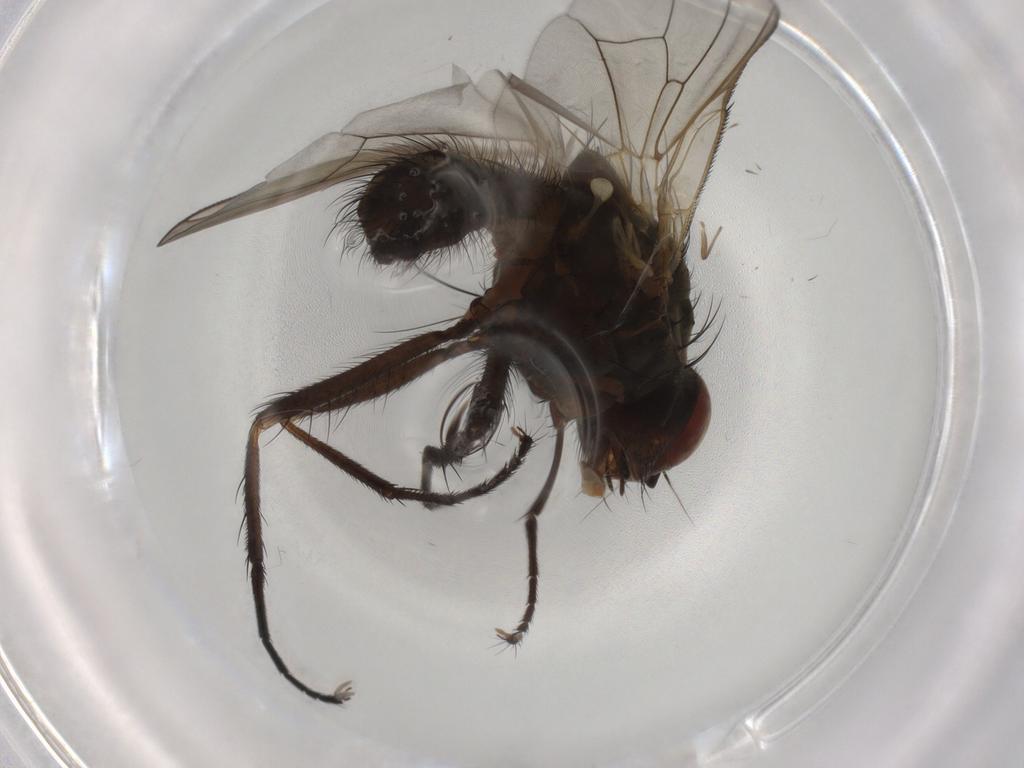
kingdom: Animalia
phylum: Arthropoda
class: Insecta
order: Diptera
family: Anthomyiidae
